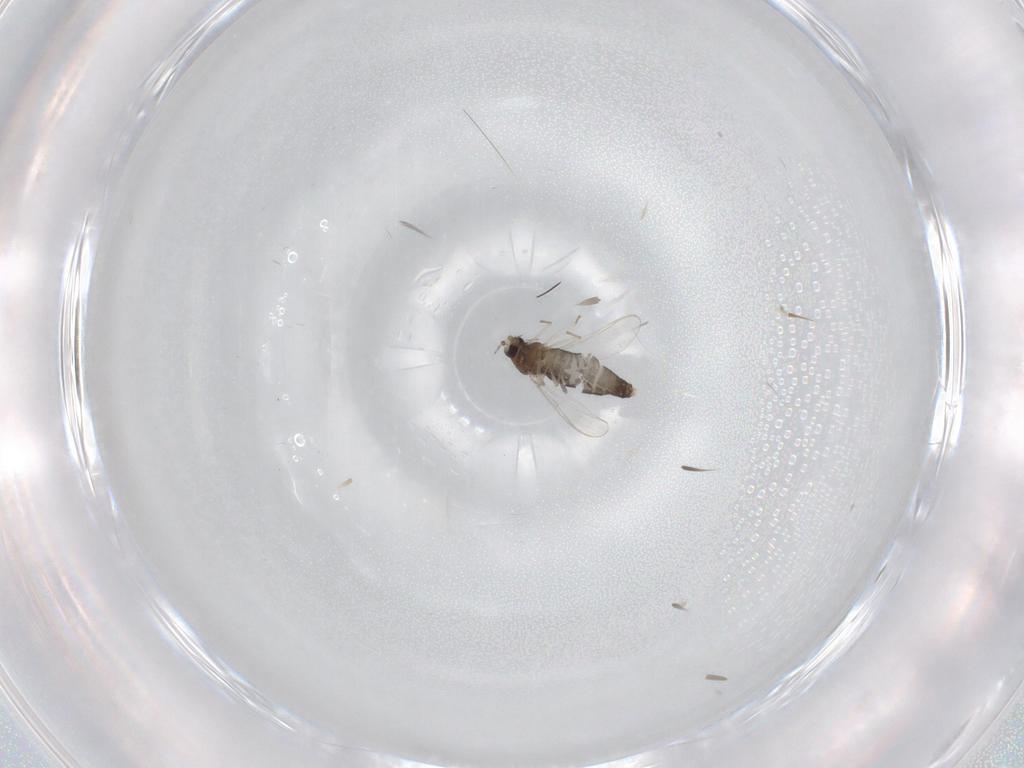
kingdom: Animalia
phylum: Arthropoda
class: Insecta
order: Diptera
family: Chironomidae
